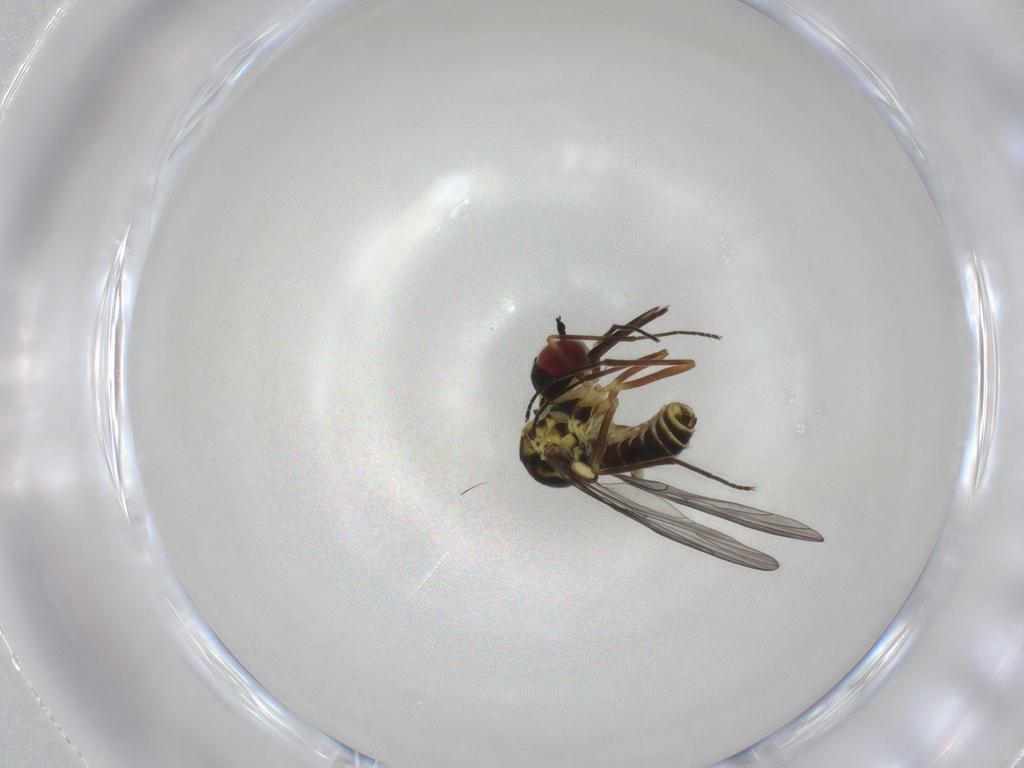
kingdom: Animalia
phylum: Arthropoda
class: Insecta
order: Diptera
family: Bombyliidae
